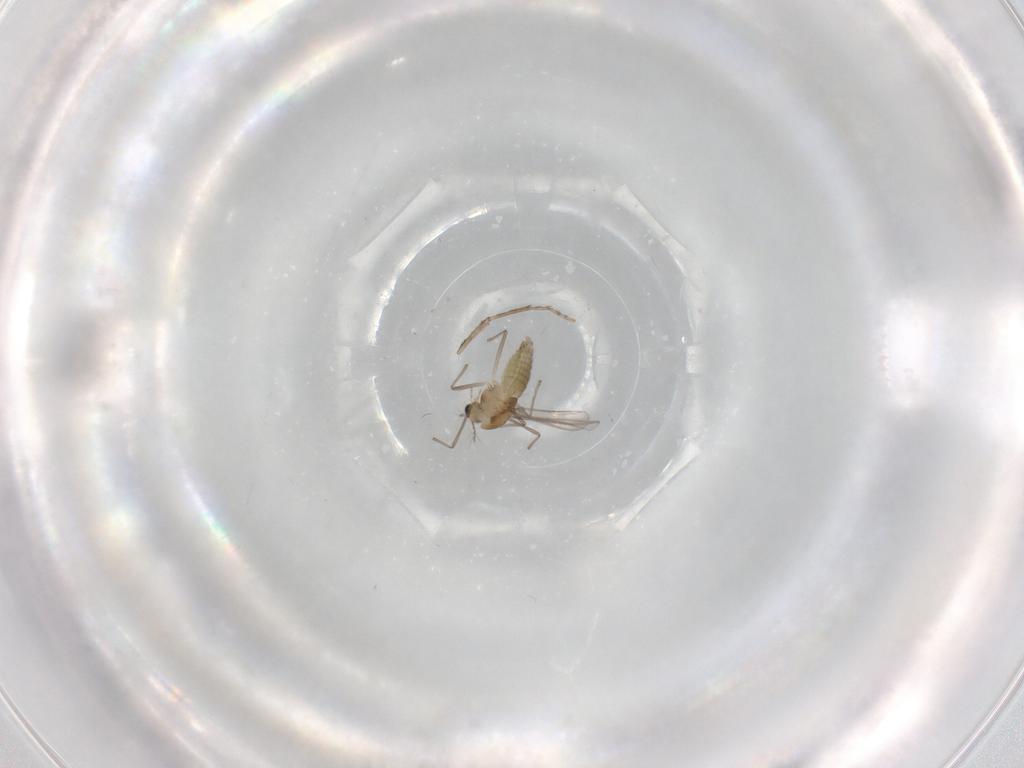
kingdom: Animalia
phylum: Arthropoda
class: Insecta
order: Diptera
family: Chironomidae
